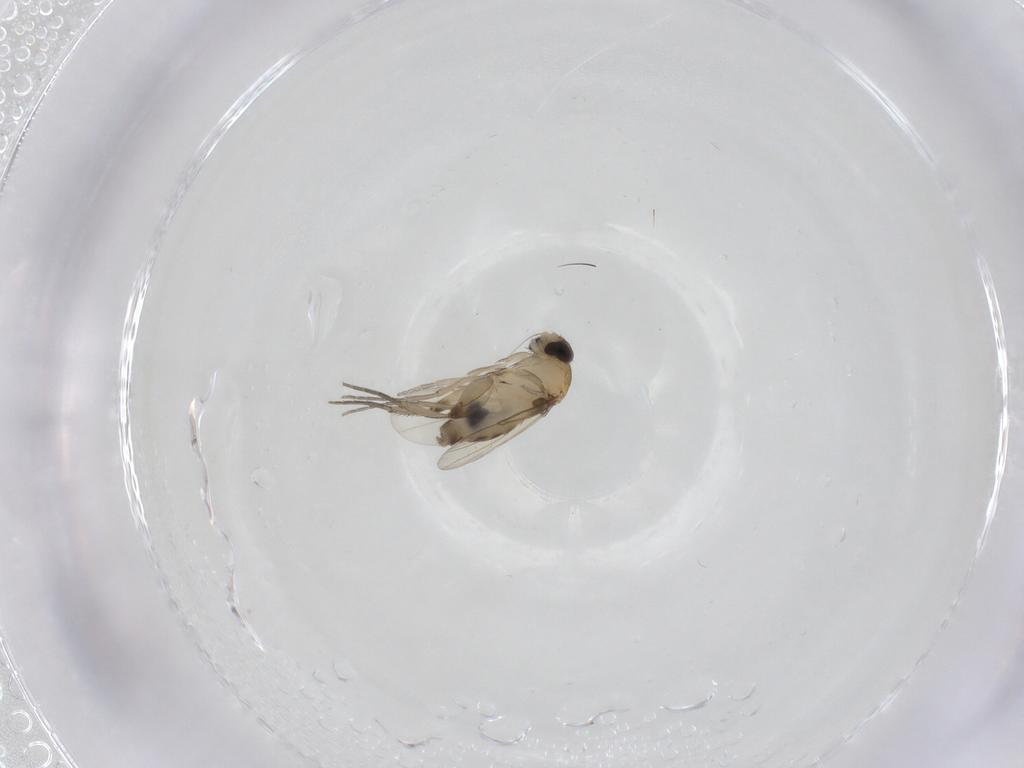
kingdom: Animalia
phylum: Arthropoda
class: Insecta
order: Diptera
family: Phoridae
